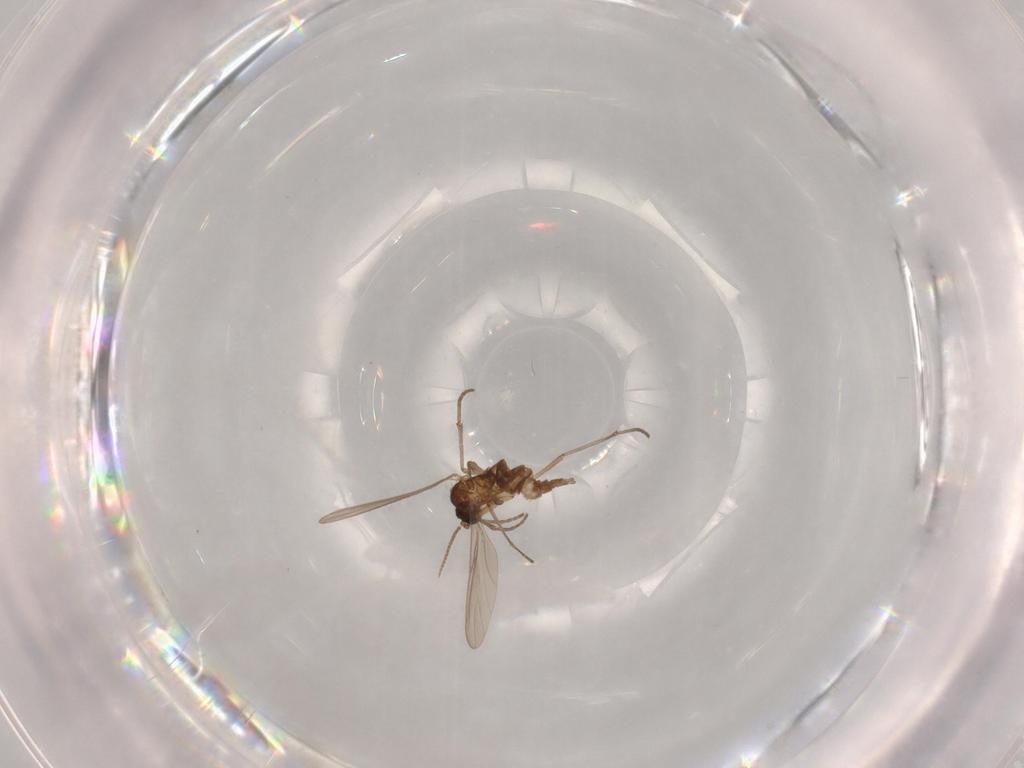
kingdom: Animalia
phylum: Arthropoda
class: Insecta
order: Diptera
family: Sciaridae
